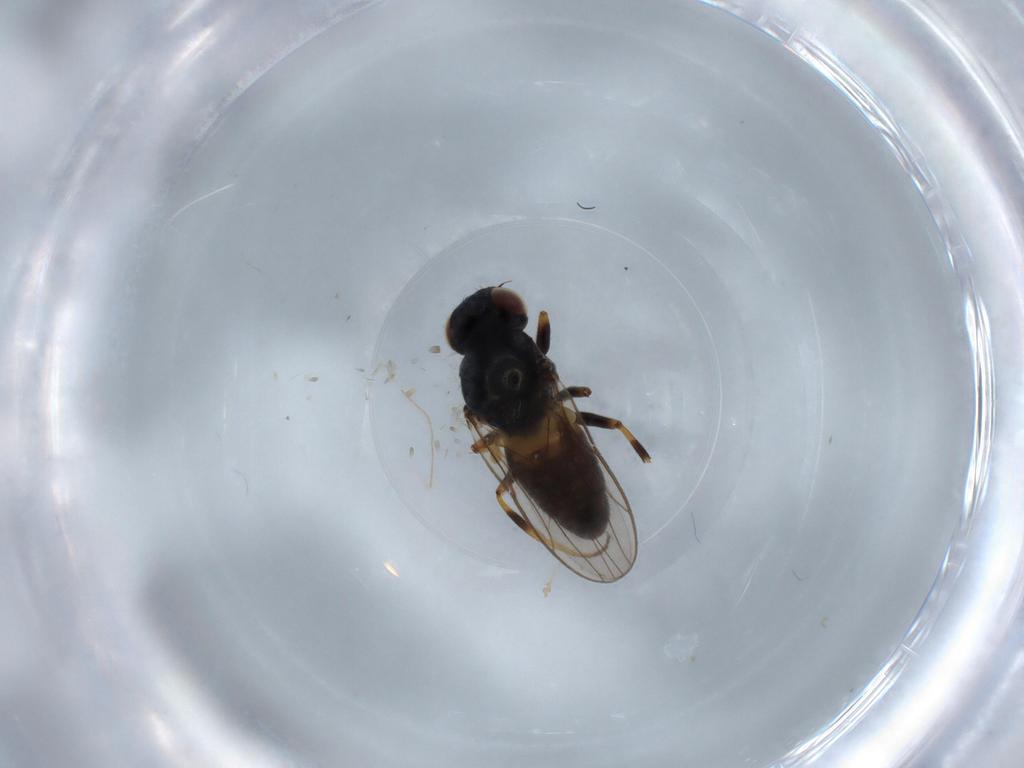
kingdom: Animalia
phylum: Arthropoda
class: Insecta
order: Diptera
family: Chloropidae
